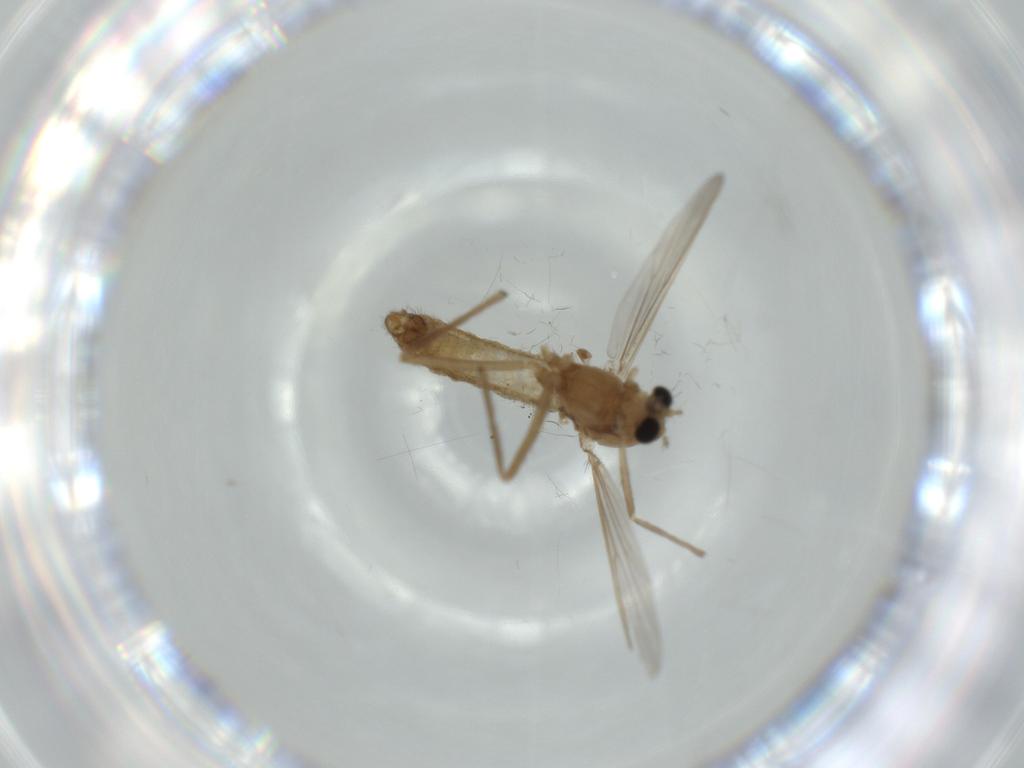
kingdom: Animalia
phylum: Arthropoda
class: Insecta
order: Diptera
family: Chironomidae
